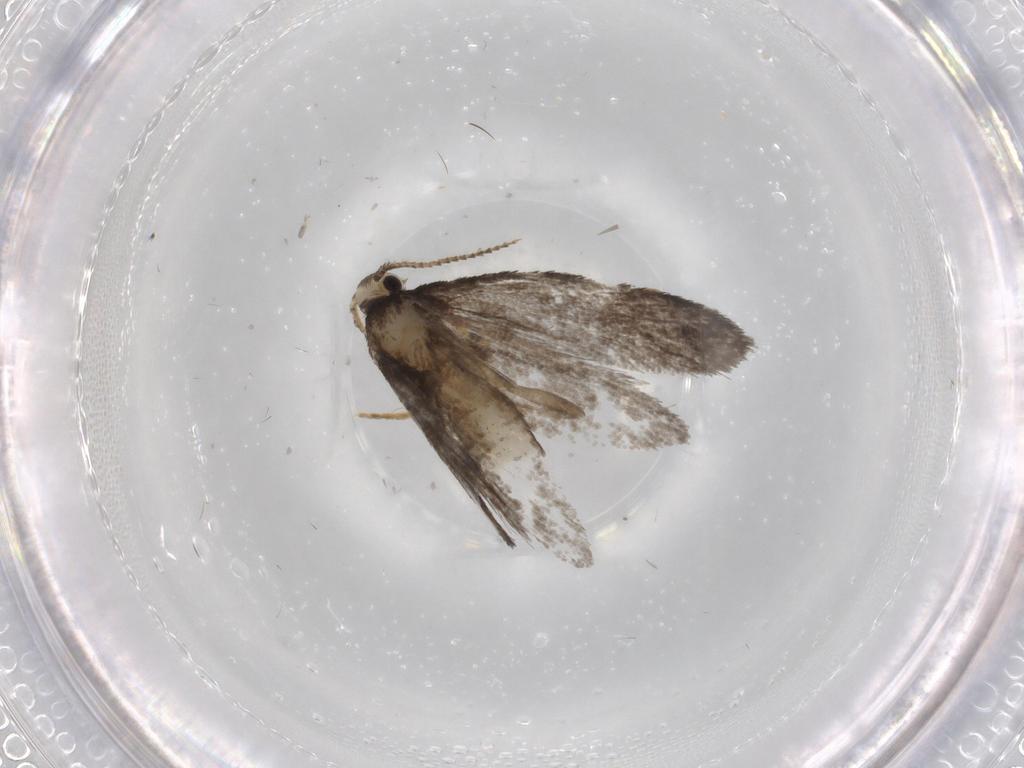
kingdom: Animalia
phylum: Arthropoda
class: Insecta
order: Lepidoptera
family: Psychidae
